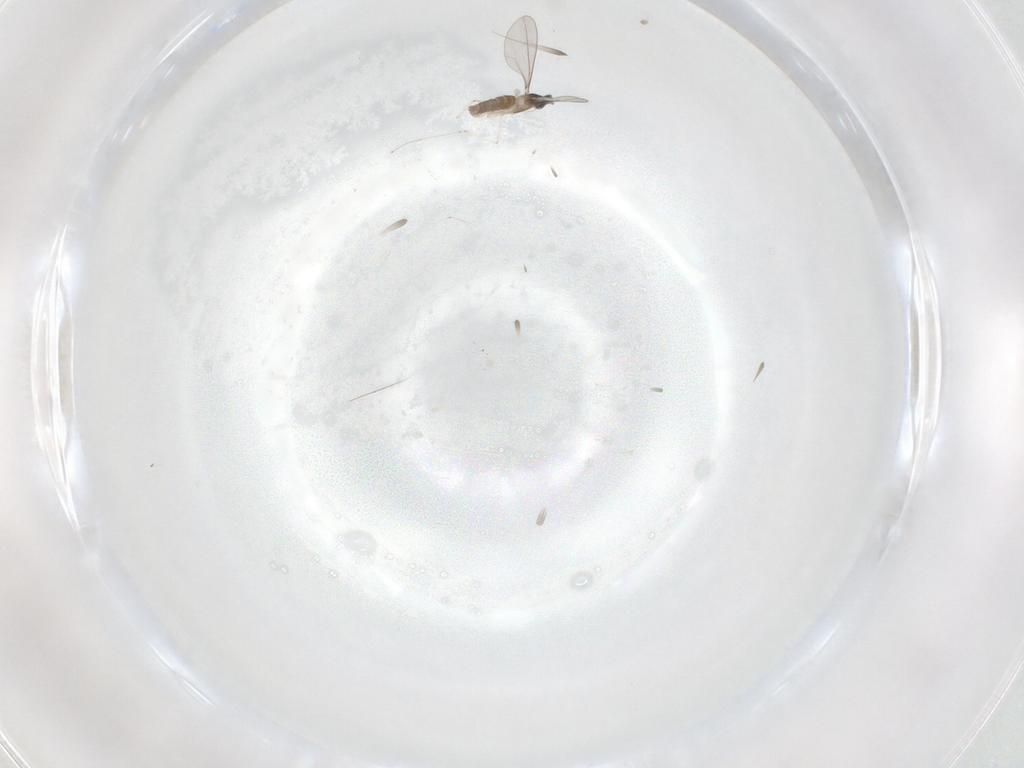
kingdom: Animalia
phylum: Arthropoda
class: Insecta
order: Diptera
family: Cecidomyiidae
